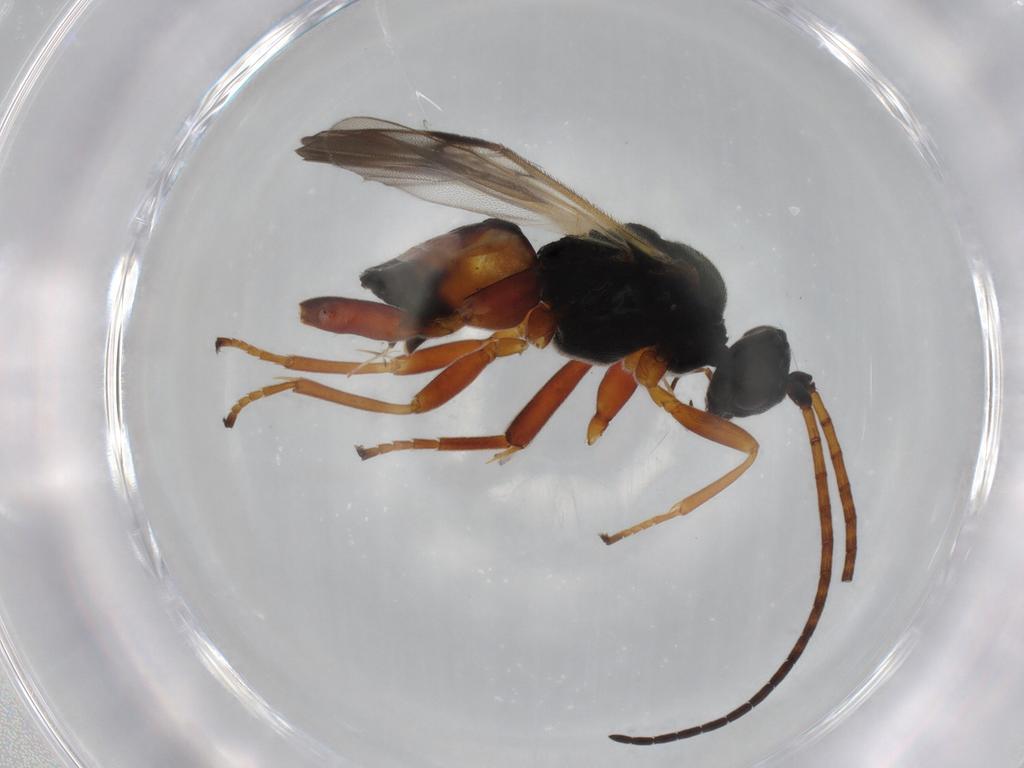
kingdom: Animalia
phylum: Arthropoda
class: Insecta
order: Hymenoptera
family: Braconidae
